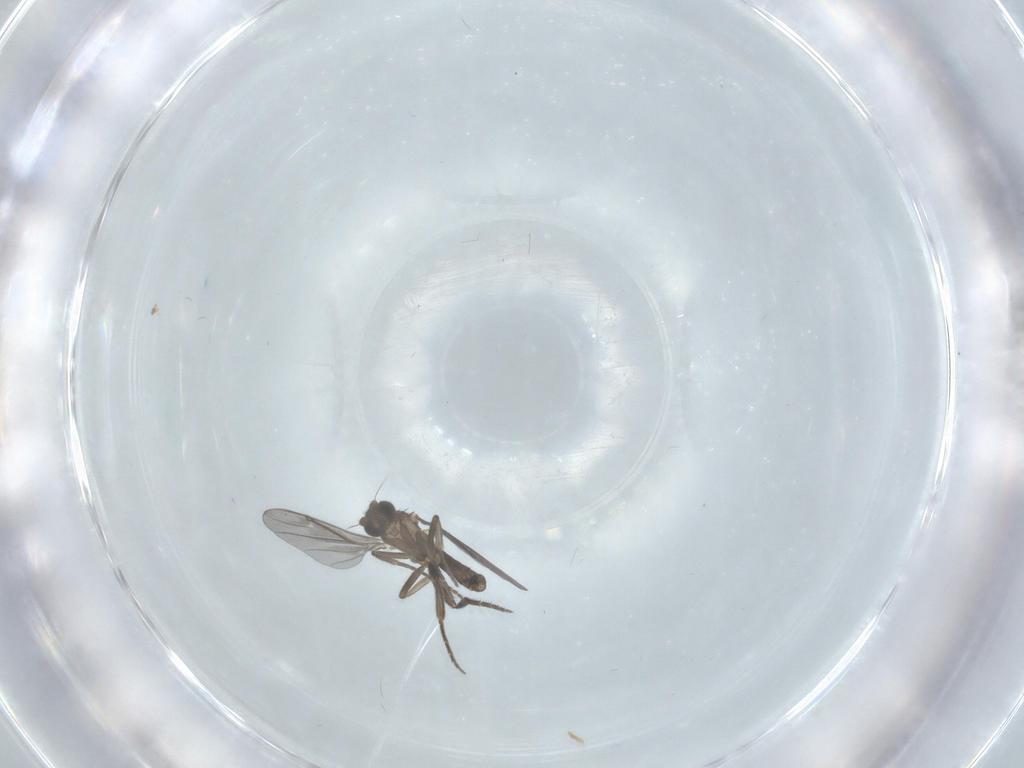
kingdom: Animalia
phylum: Arthropoda
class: Insecta
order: Diptera
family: Phoridae
